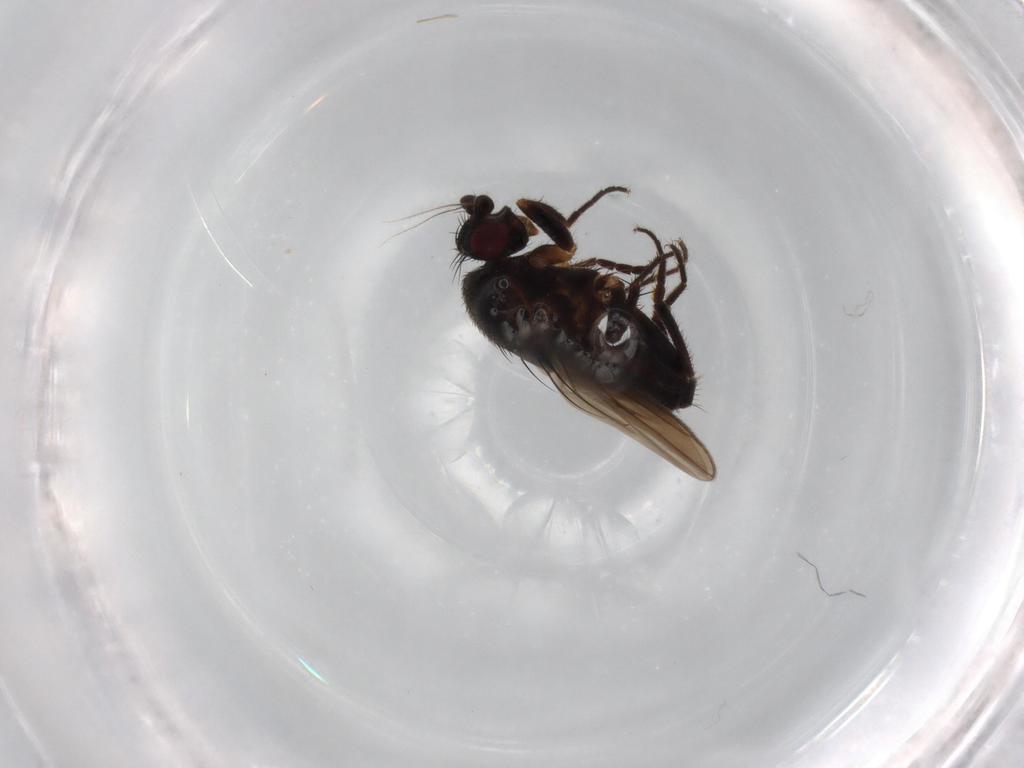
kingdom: Animalia
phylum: Arthropoda
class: Insecta
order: Diptera
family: Sphaeroceridae
